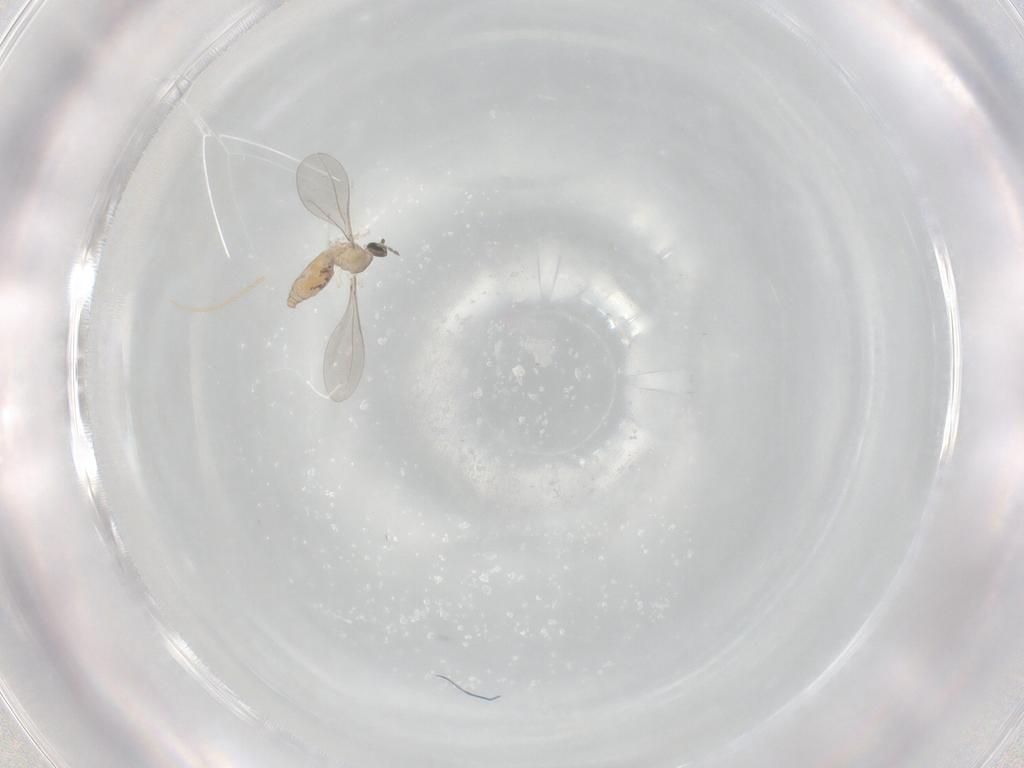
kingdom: Animalia
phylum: Arthropoda
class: Insecta
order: Diptera
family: Cecidomyiidae
